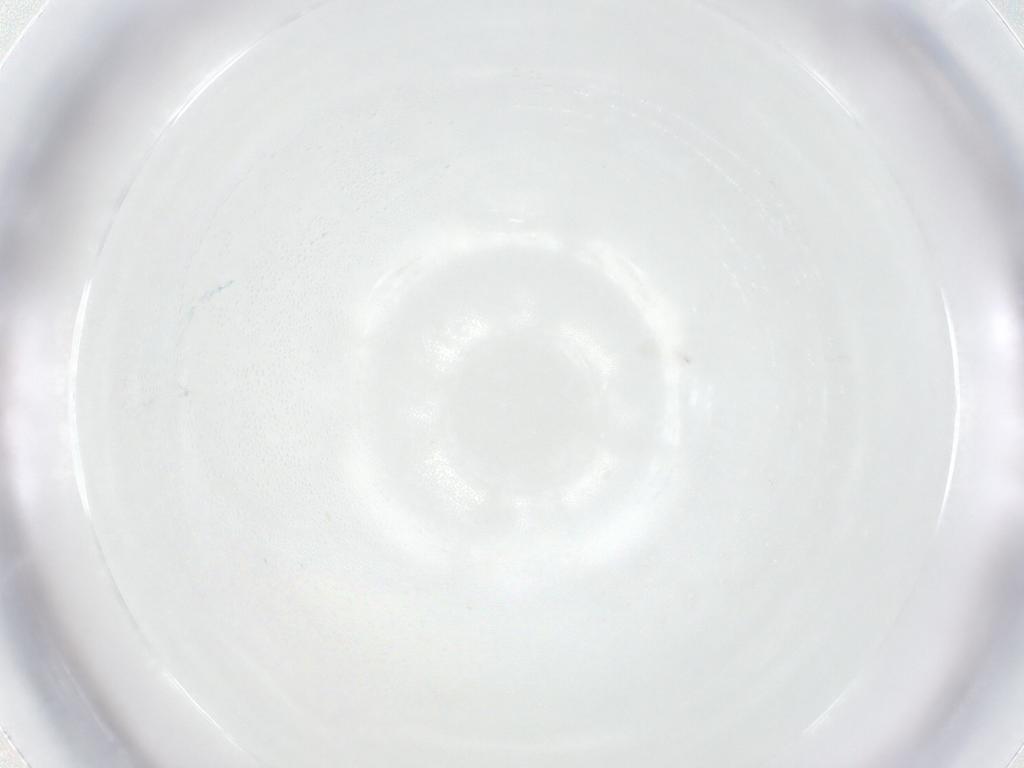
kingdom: Animalia
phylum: Arthropoda
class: Insecta
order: Diptera
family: Tachinidae
